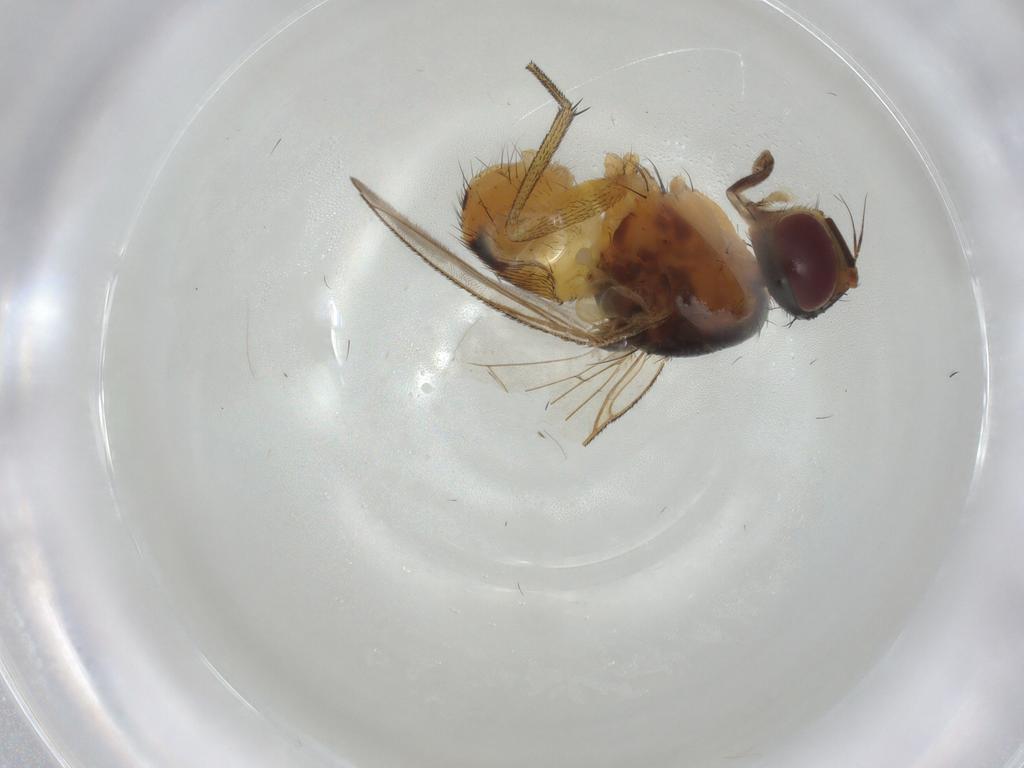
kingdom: Animalia
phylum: Arthropoda
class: Insecta
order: Diptera
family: Muscidae
